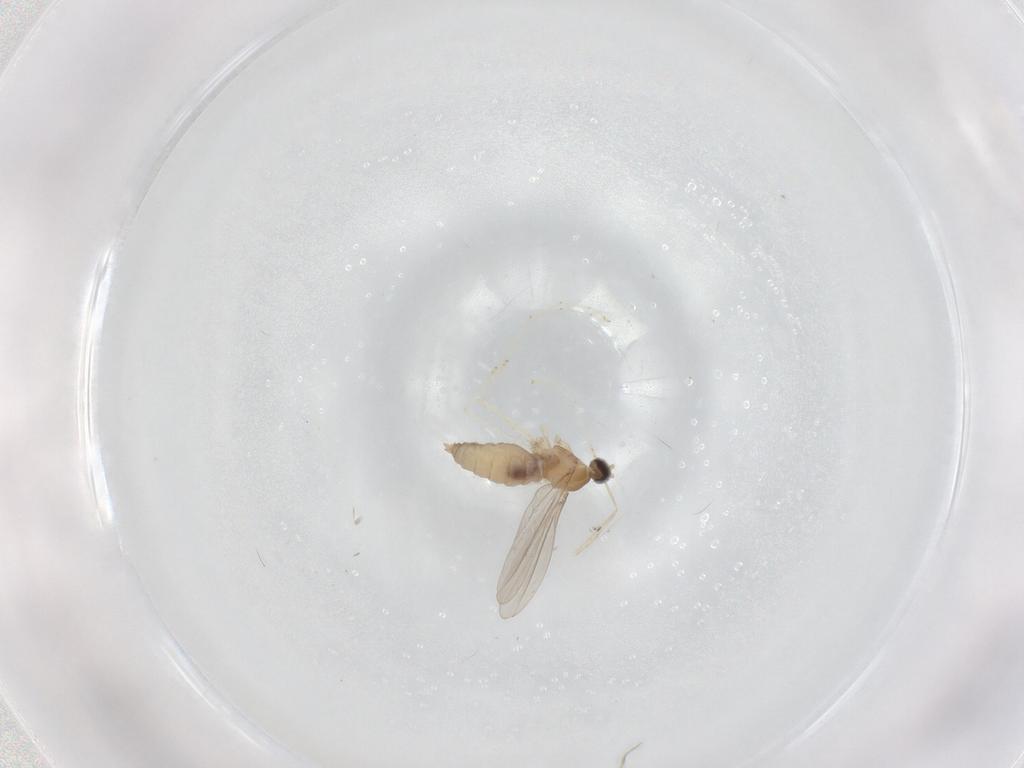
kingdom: Animalia
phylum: Arthropoda
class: Insecta
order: Diptera
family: Cecidomyiidae
